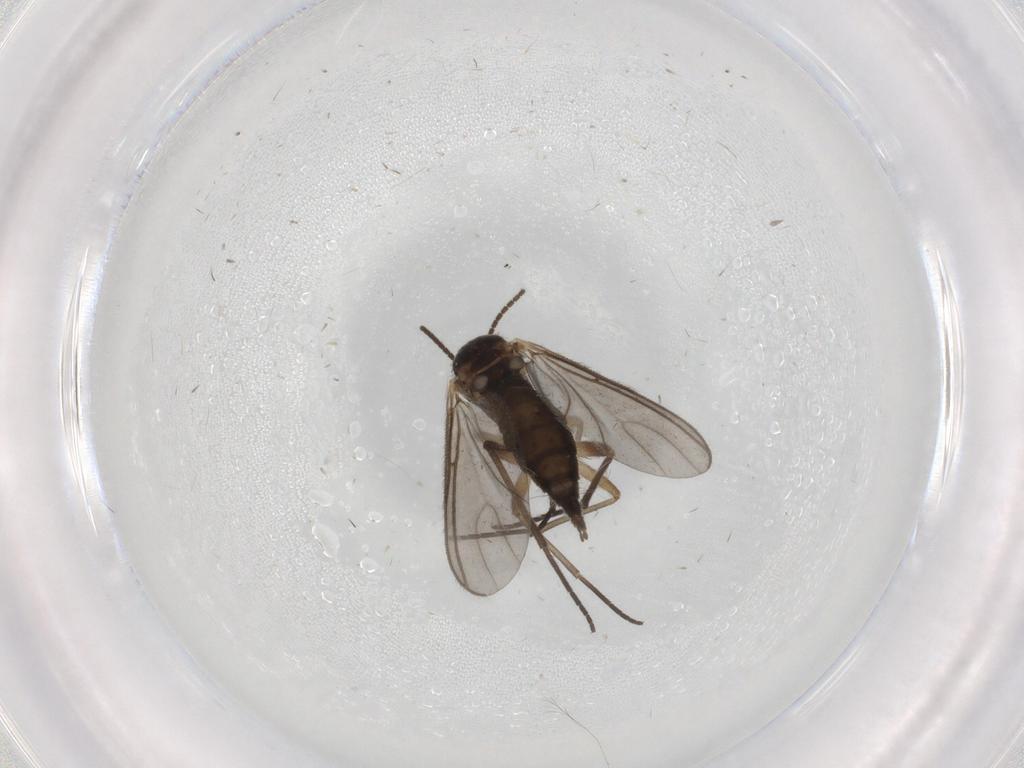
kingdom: Animalia
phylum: Arthropoda
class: Insecta
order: Diptera
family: Sciaridae
